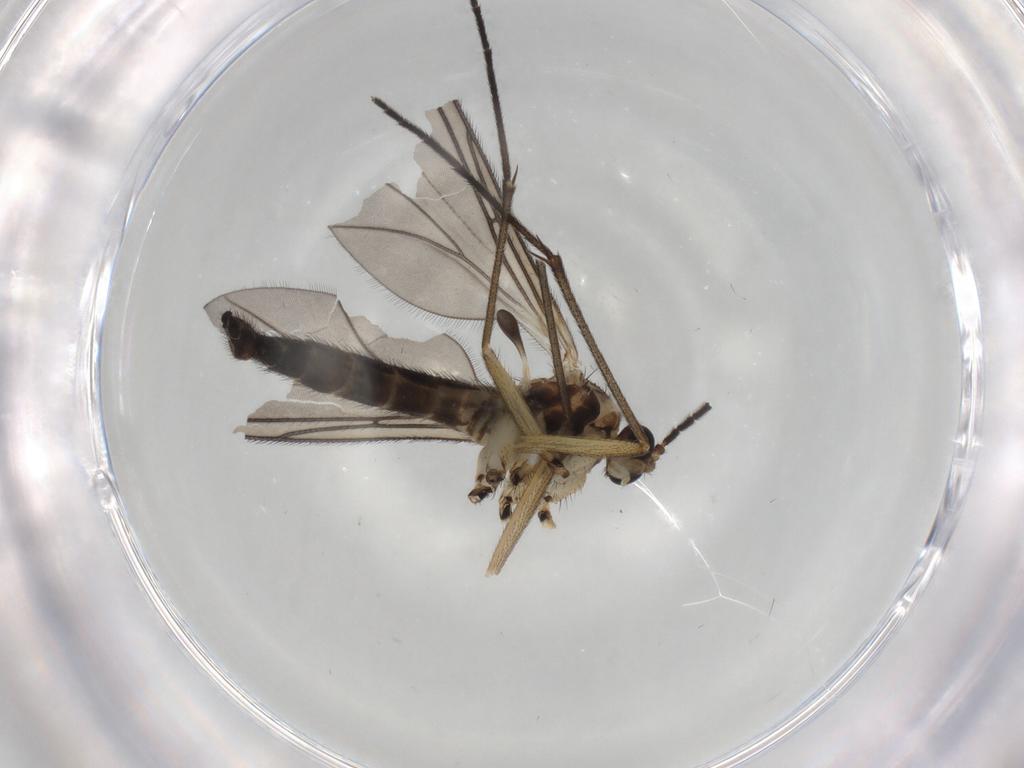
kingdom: Animalia
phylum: Arthropoda
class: Insecta
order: Diptera
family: Sciaridae
